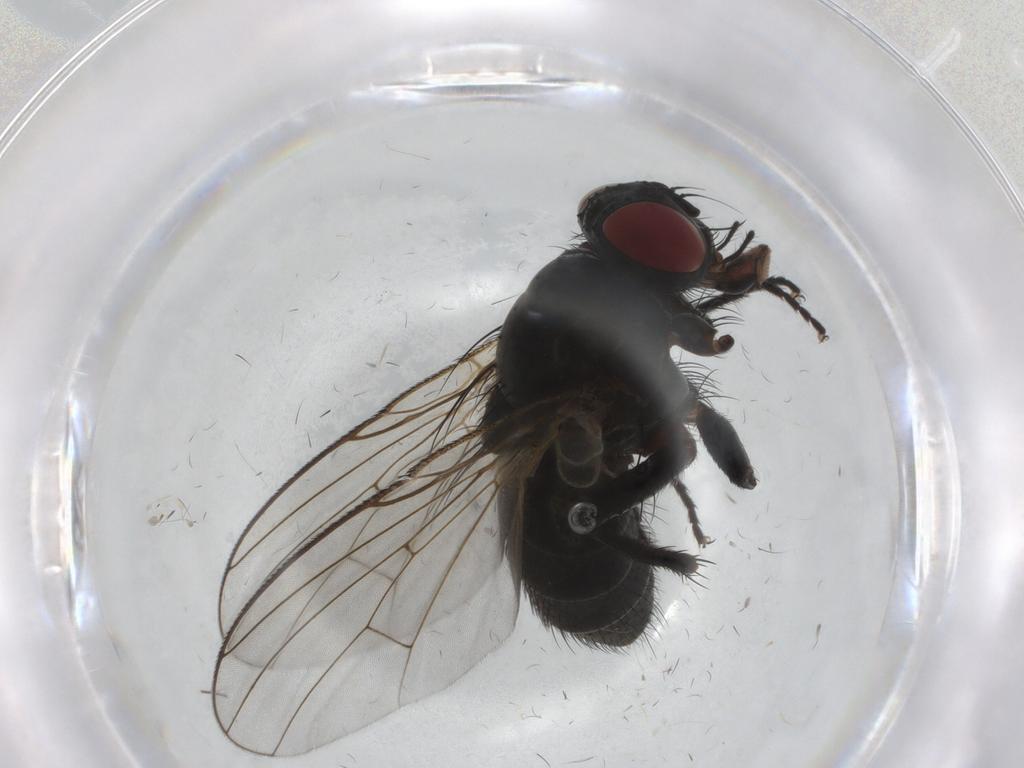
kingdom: Animalia
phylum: Arthropoda
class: Insecta
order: Diptera
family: Muscidae
